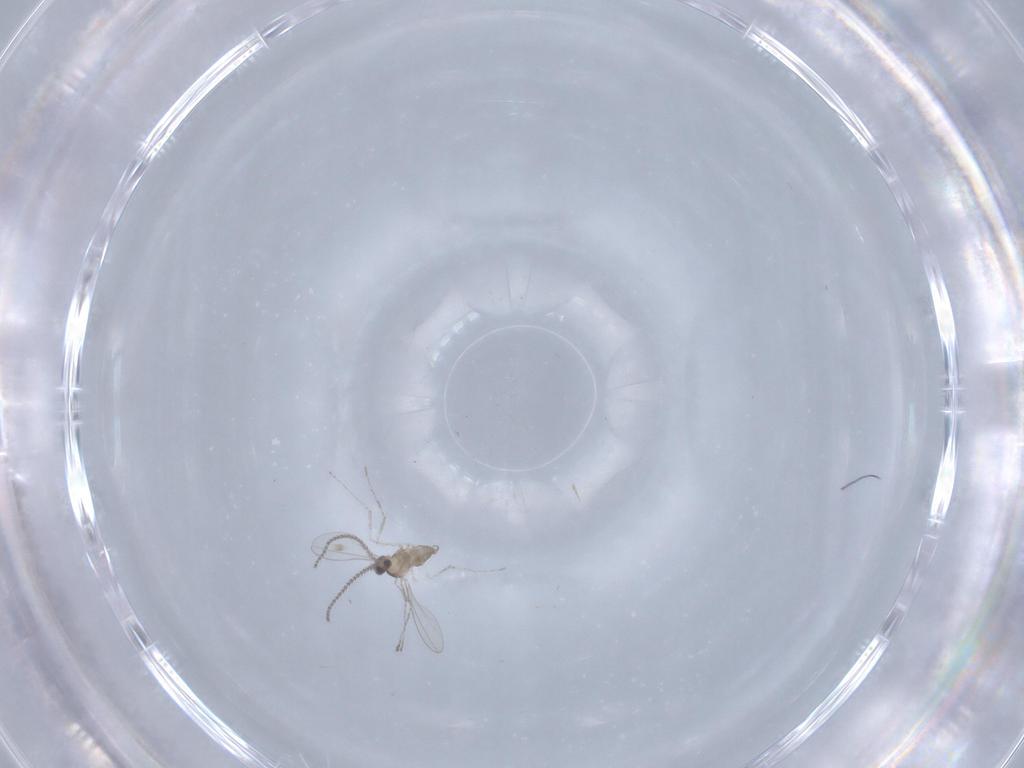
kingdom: Animalia
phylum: Arthropoda
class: Insecta
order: Diptera
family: Cecidomyiidae
